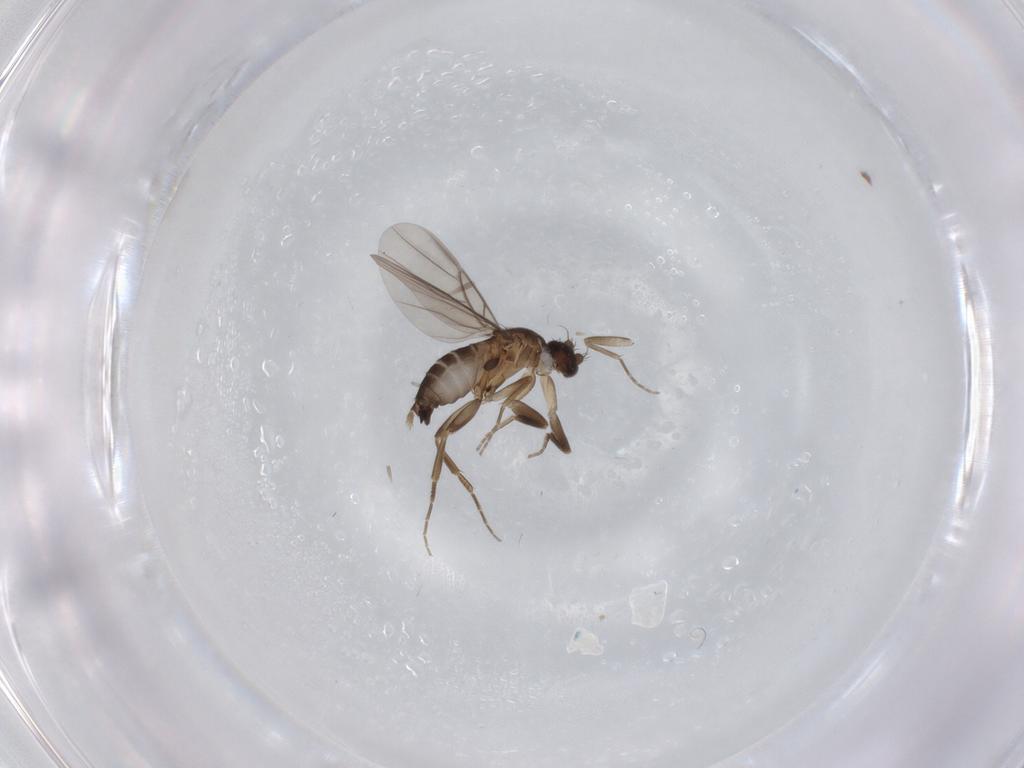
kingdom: Animalia
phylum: Arthropoda
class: Insecta
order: Diptera
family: Phoridae
